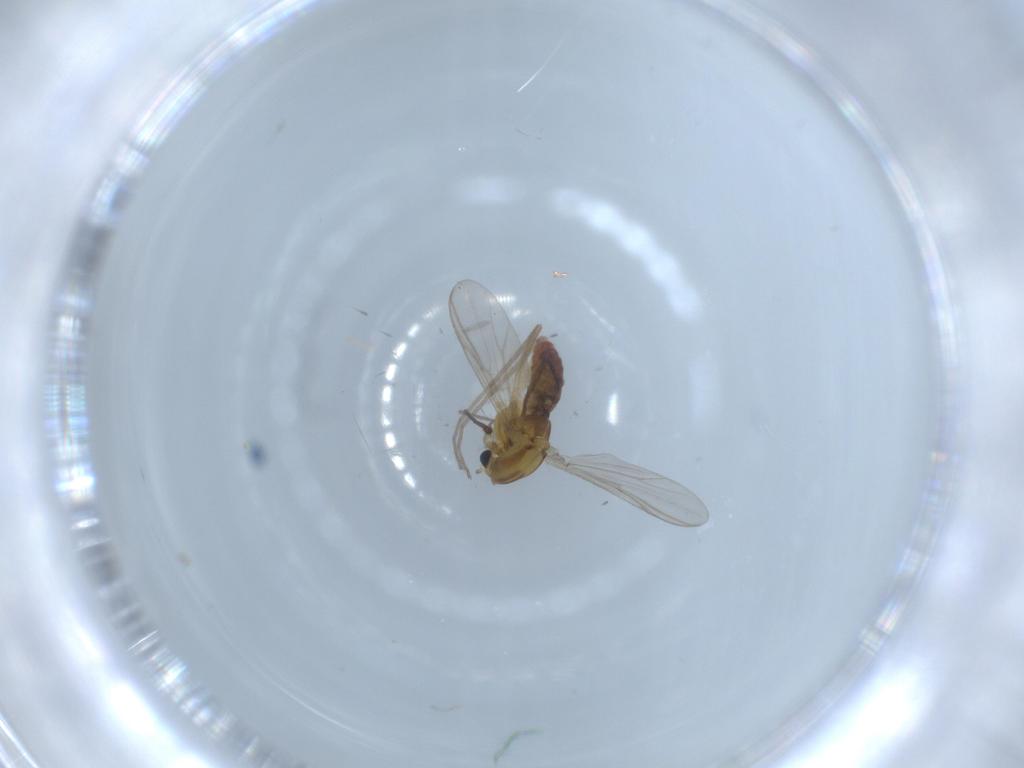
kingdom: Animalia
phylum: Arthropoda
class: Insecta
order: Diptera
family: Chironomidae
